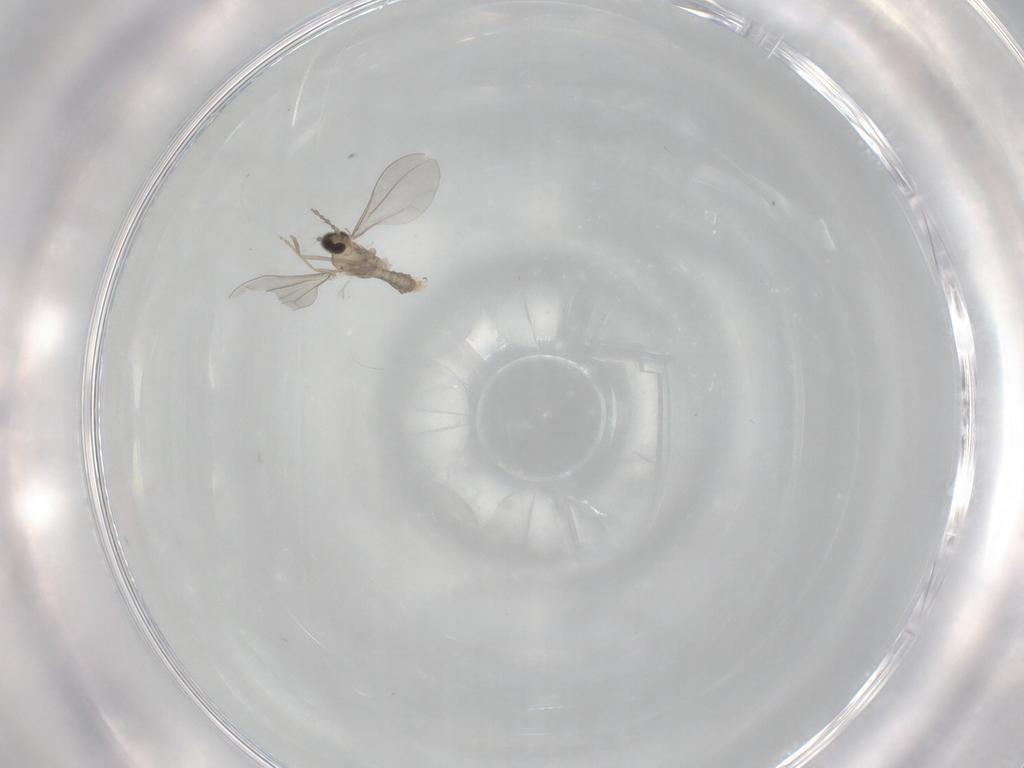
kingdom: Animalia
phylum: Arthropoda
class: Insecta
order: Diptera
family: Cecidomyiidae
